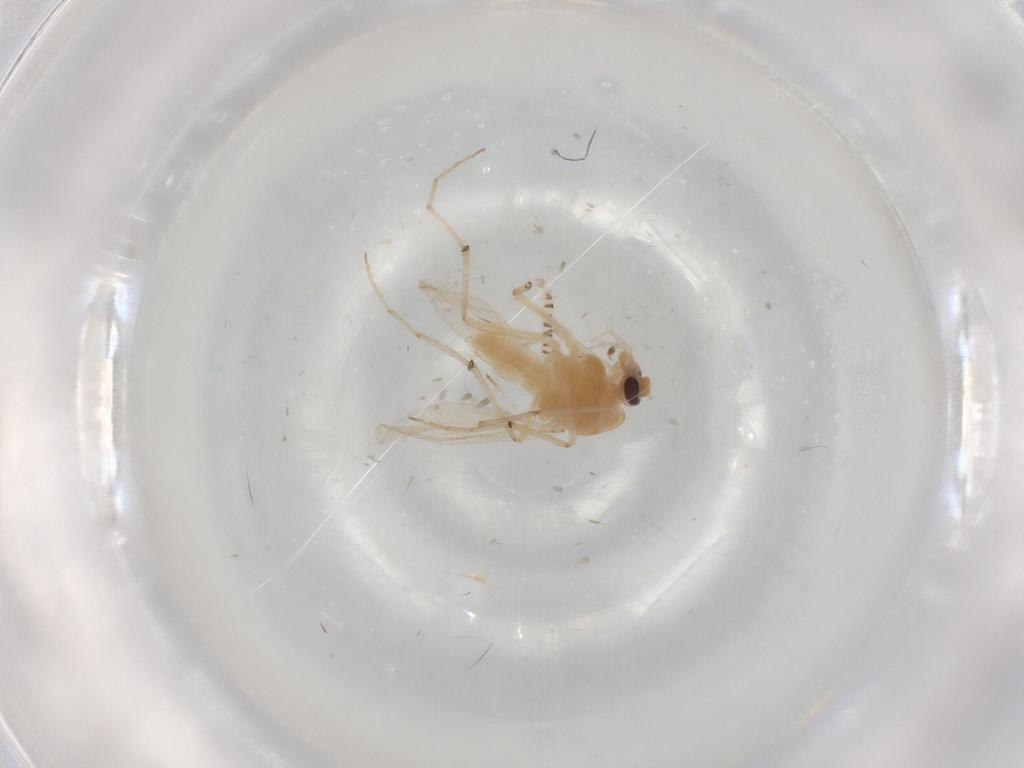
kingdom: Animalia
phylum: Arthropoda
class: Insecta
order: Diptera
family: Chironomidae
